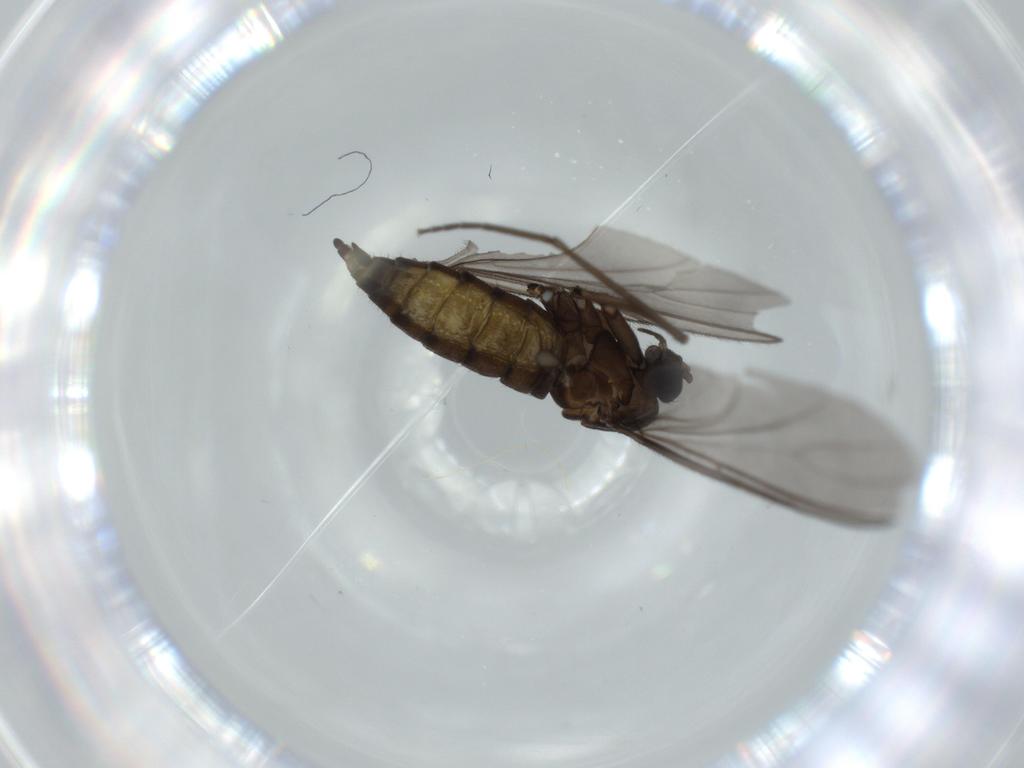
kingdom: Animalia
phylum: Arthropoda
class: Insecta
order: Diptera
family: Sciaridae
